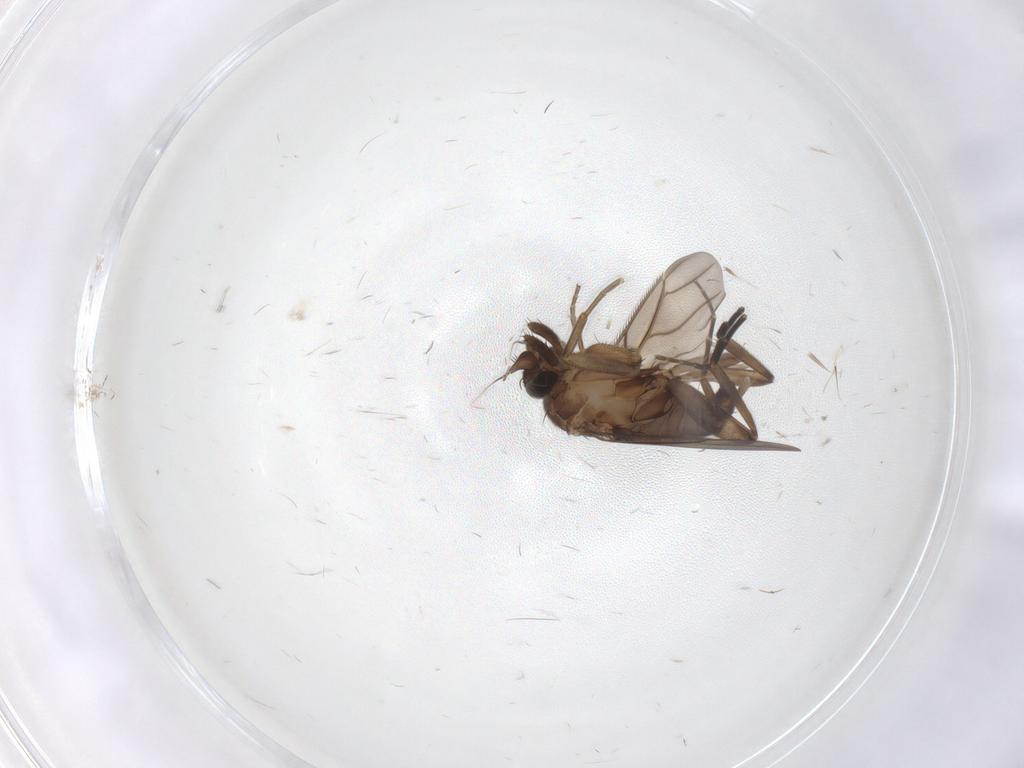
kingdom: Animalia
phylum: Arthropoda
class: Insecta
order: Diptera
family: Phoridae
